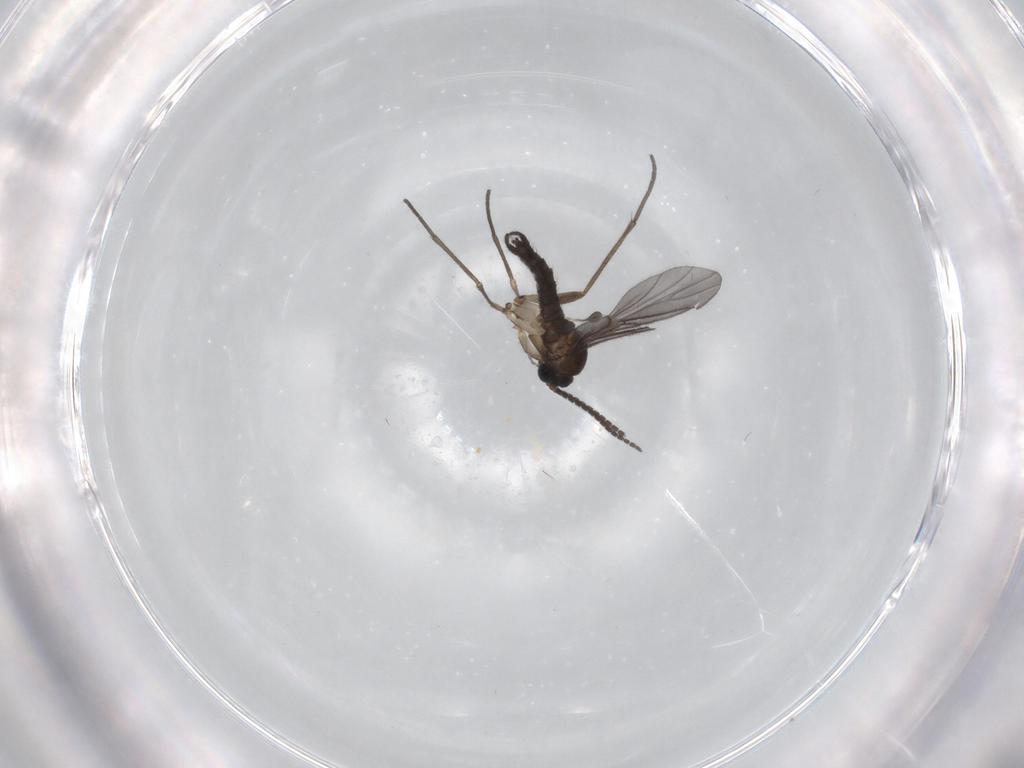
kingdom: Animalia
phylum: Arthropoda
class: Insecta
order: Diptera
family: Sciaridae
